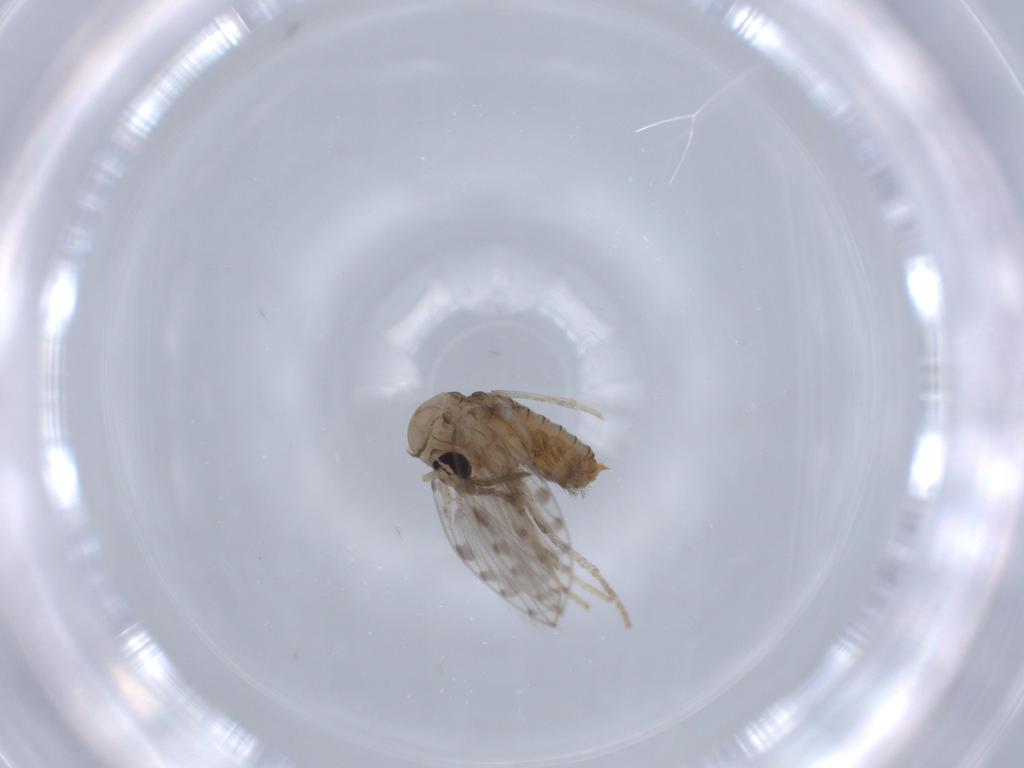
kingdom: Animalia
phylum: Arthropoda
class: Insecta
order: Diptera
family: Psychodidae
